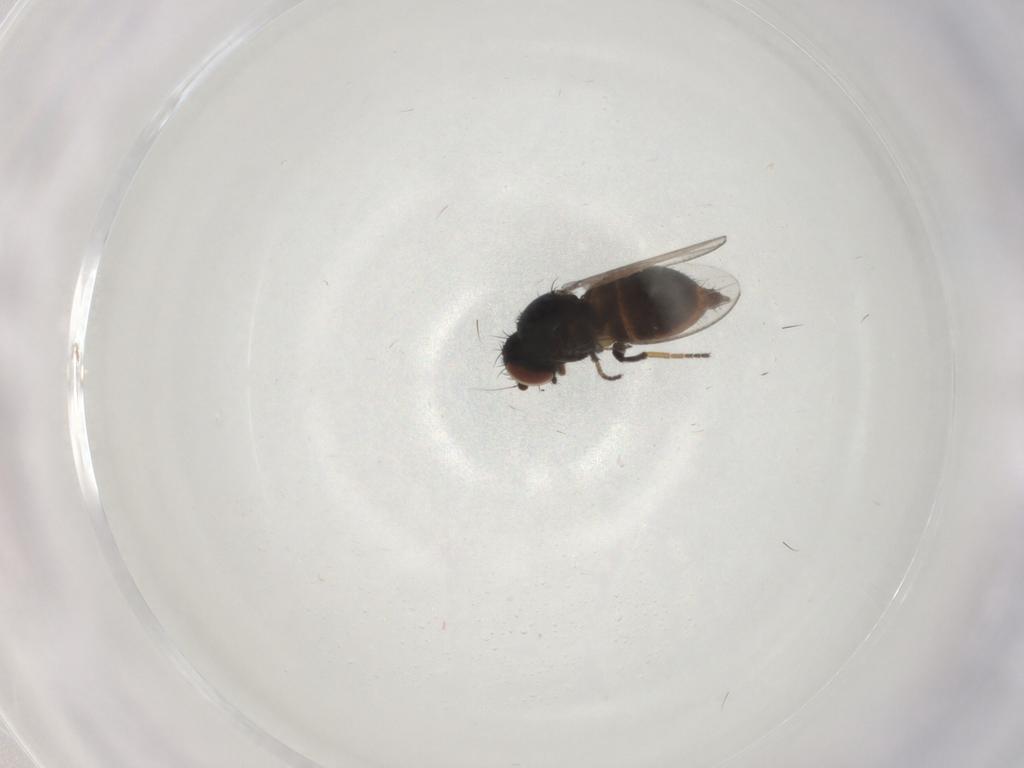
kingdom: Animalia
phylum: Arthropoda
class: Insecta
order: Diptera
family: Milichiidae
